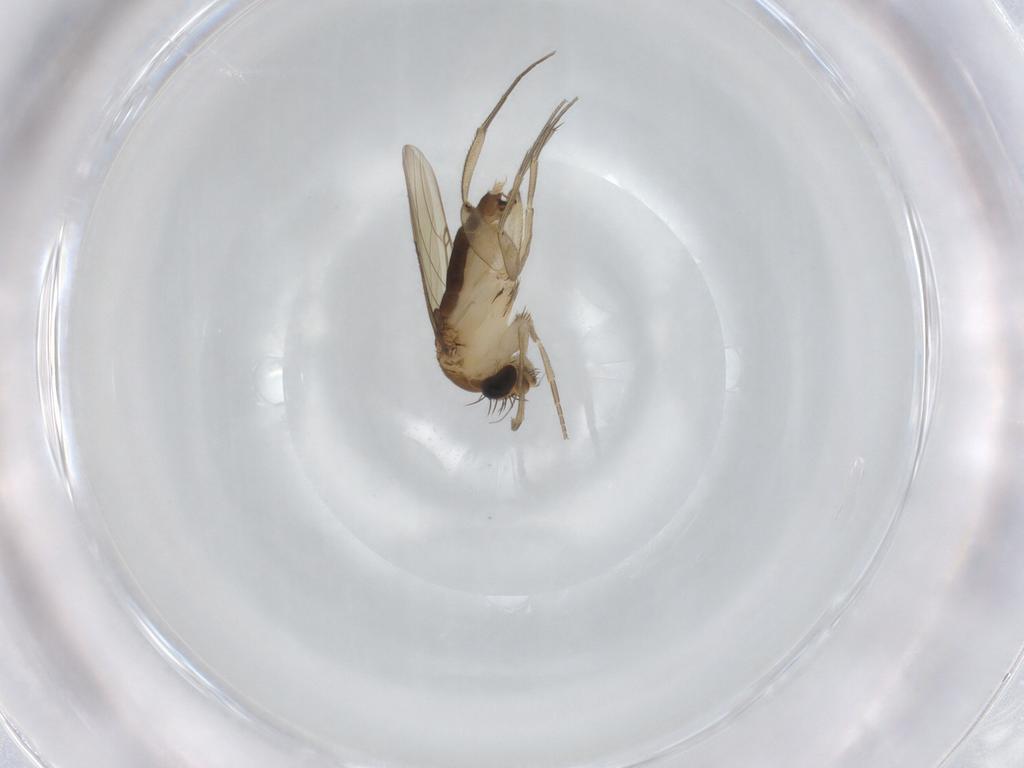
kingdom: Animalia
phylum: Arthropoda
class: Insecta
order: Diptera
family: Phoridae
